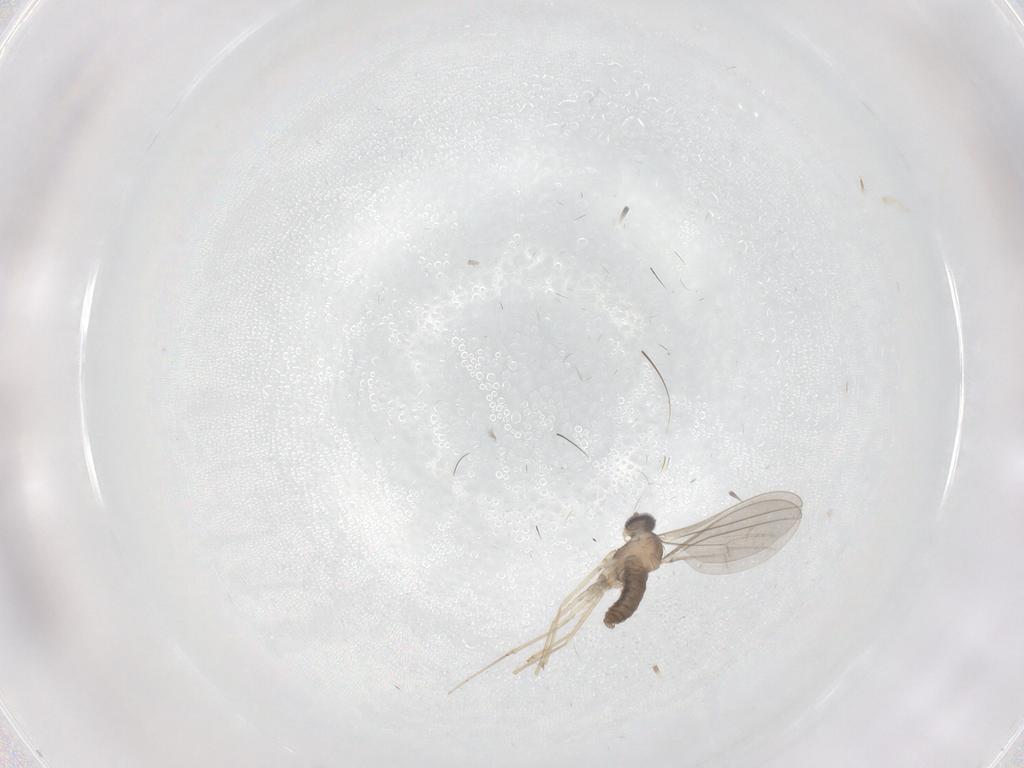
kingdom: Animalia
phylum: Arthropoda
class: Insecta
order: Diptera
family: Cecidomyiidae
